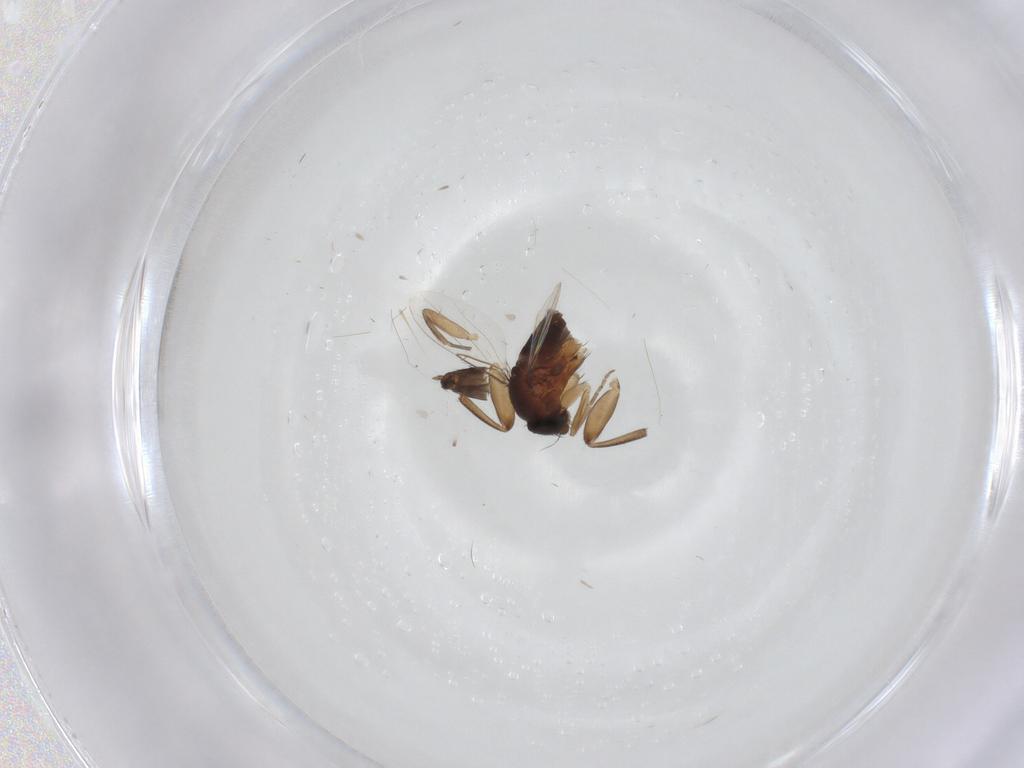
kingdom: Animalia
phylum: Arthropoda
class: Insecta
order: Diptera
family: Phoridae
